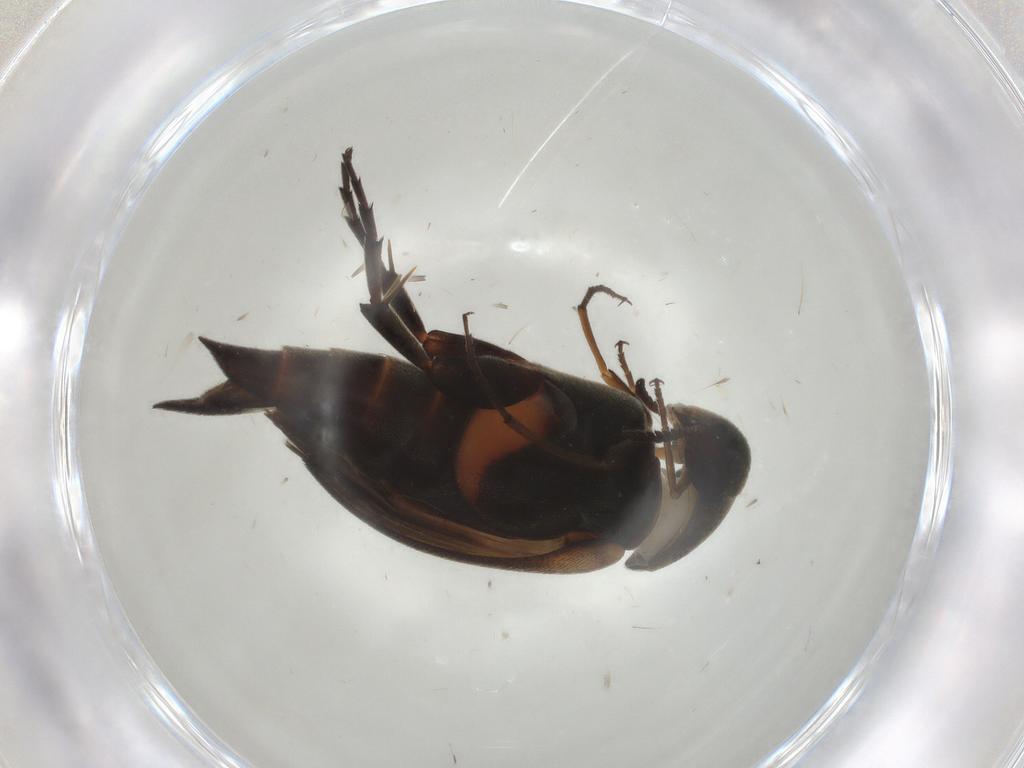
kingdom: Animalia
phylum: Arthropoda
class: Insecta
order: Coleoptera
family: Mordellidae
